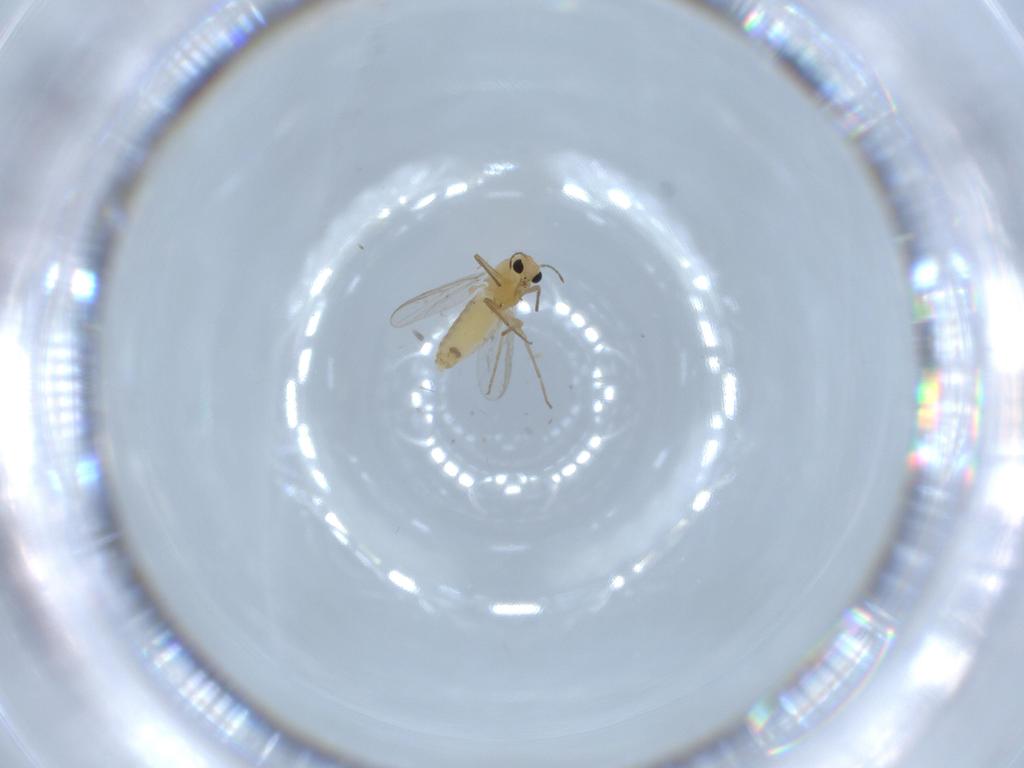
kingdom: Animalia
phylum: Arthropoda
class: Insecta
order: Diptera
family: Chironomidae
